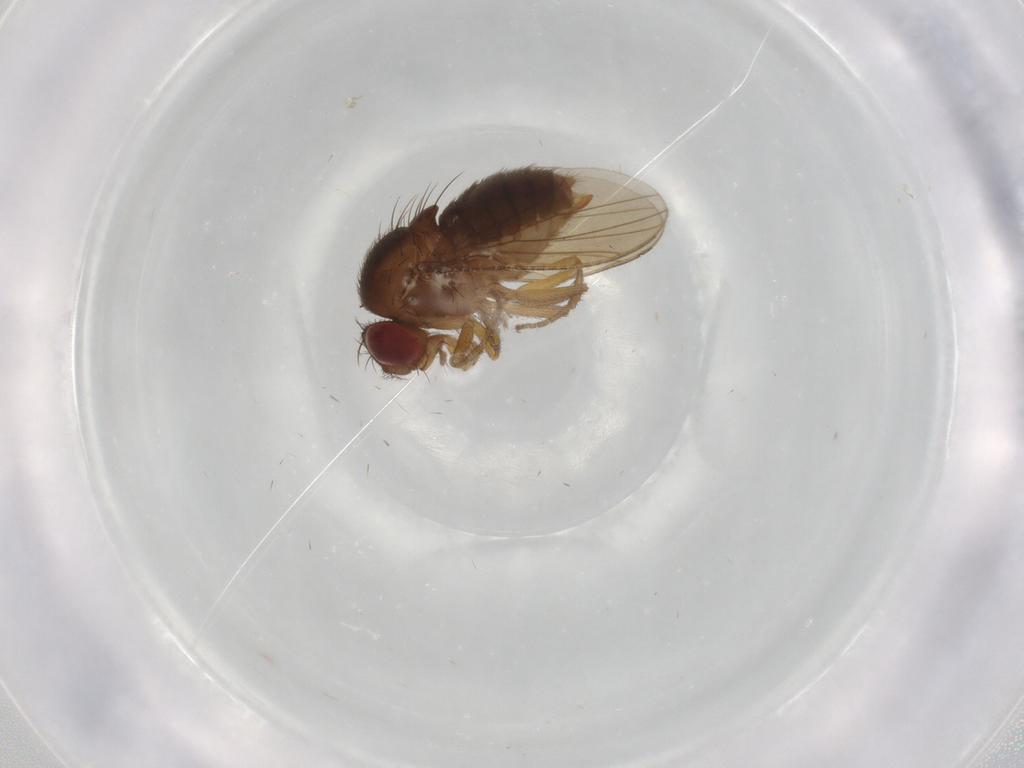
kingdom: Animalia
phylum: Arthropoda
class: Insecta
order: Diptera
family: Drosophilidae
